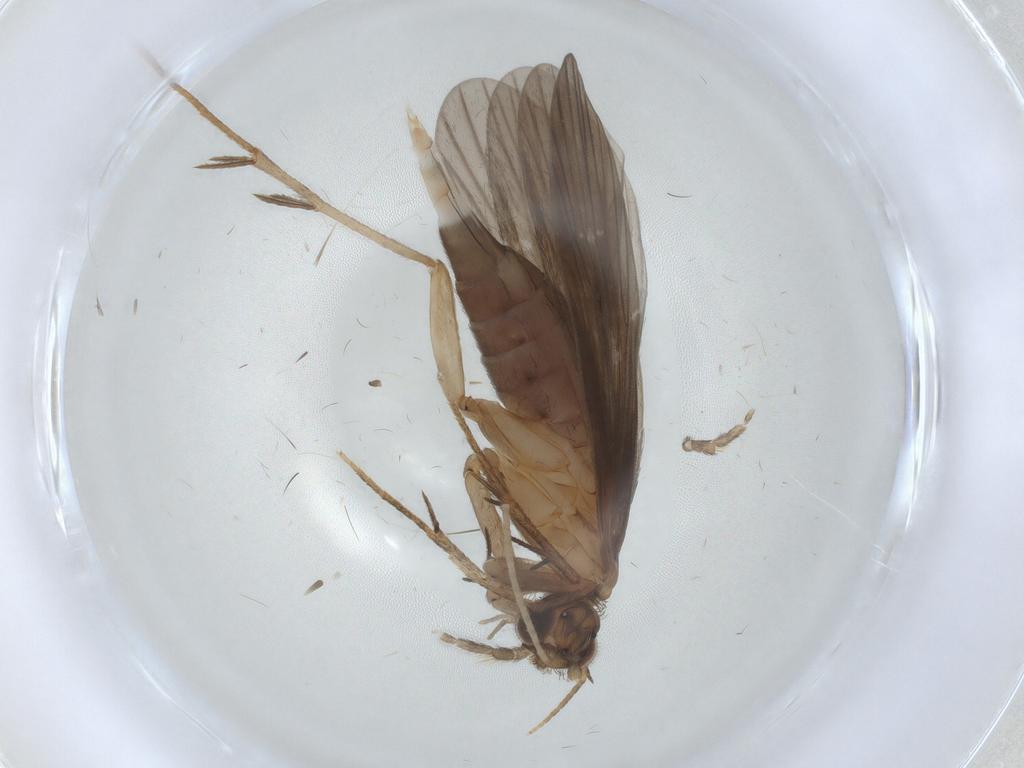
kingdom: Animalia
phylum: Arthropoda
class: Insecta
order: Trichoptera
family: Philopotamidae
